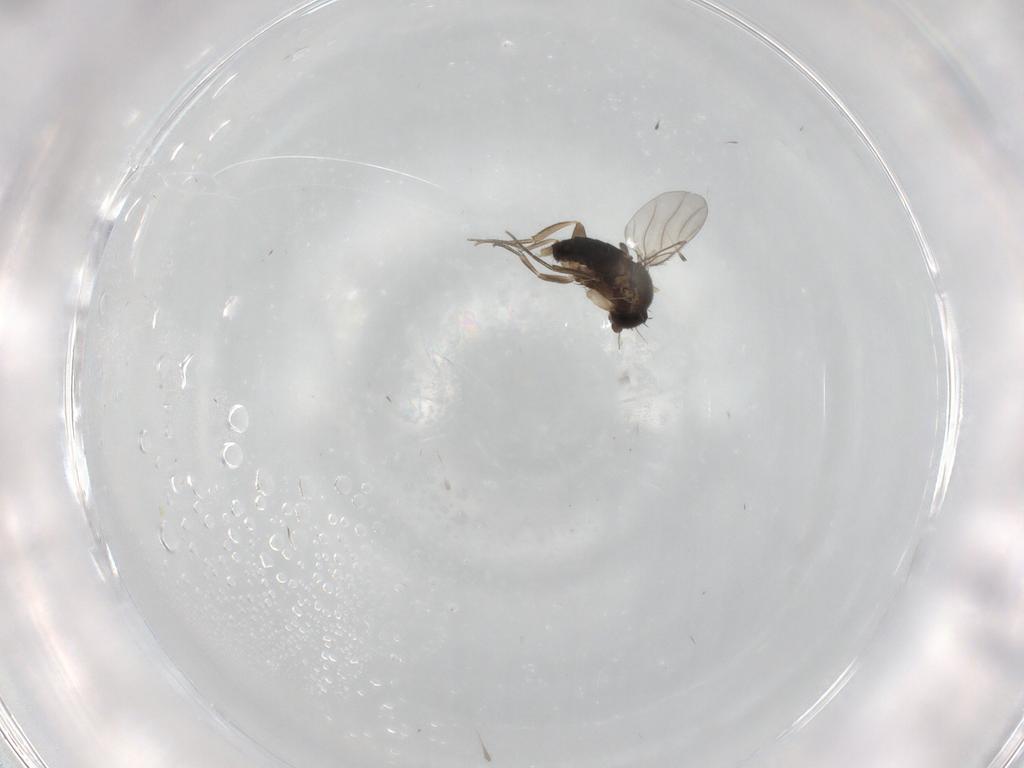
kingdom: Animalia
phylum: Arthropoda
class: Insecta
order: Diptera
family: Phoridae
